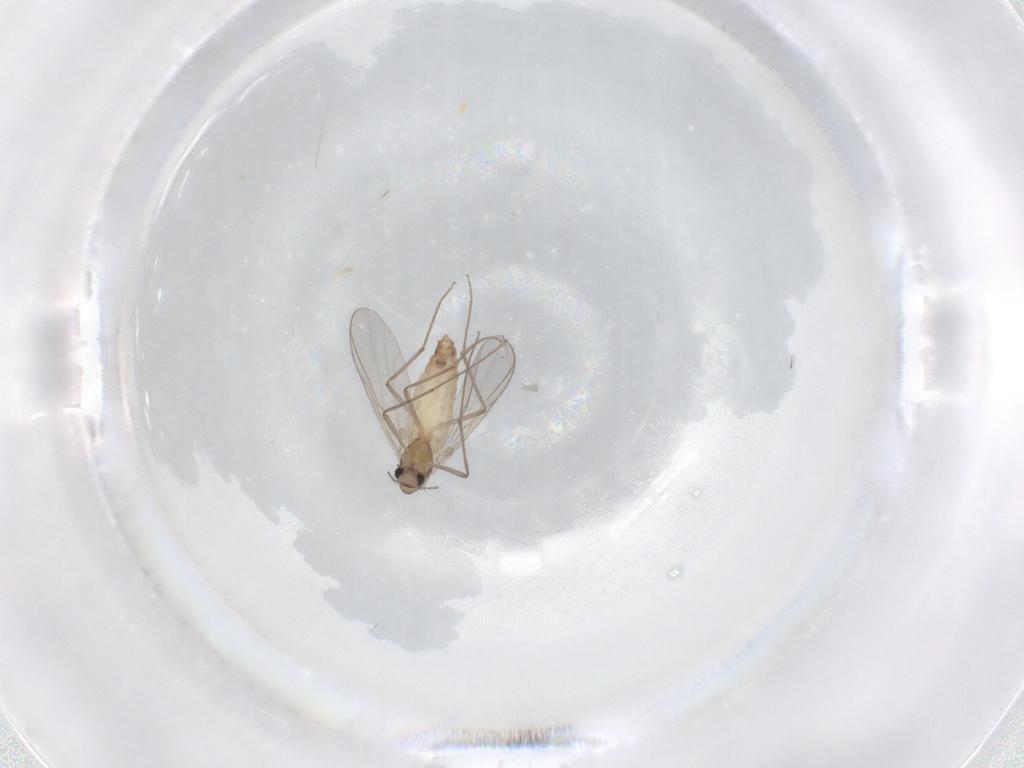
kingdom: Animalia
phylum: Arthropoda
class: Insecta
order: Diptera
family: Chironomidae
